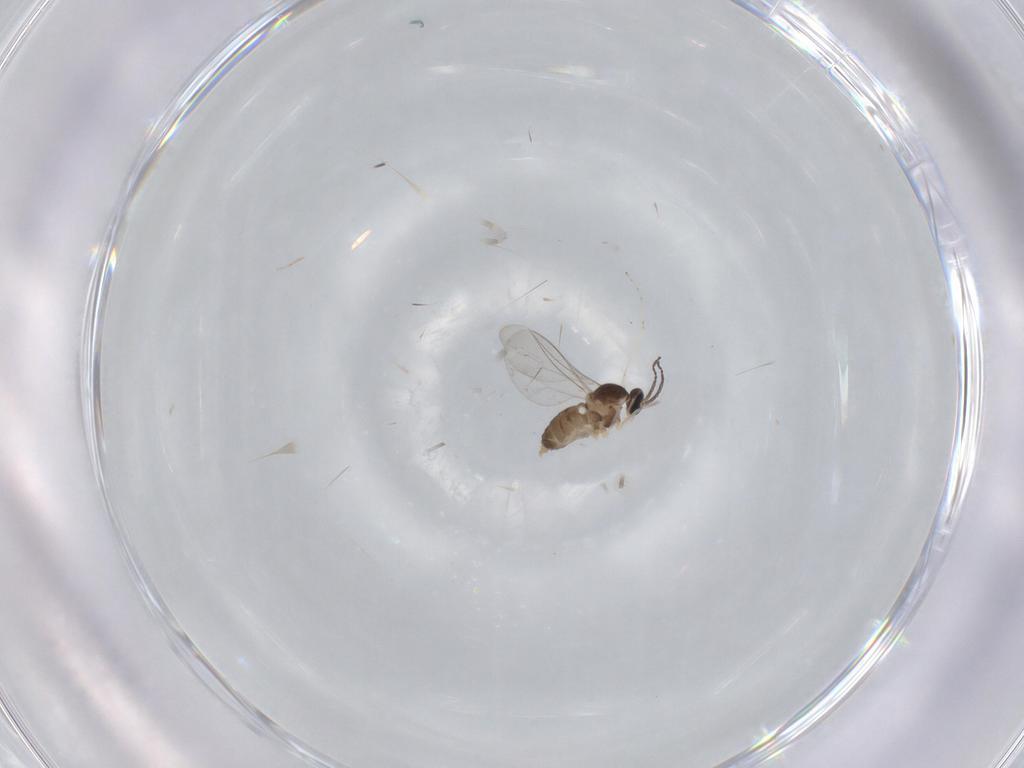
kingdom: Animalia
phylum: Arthropoda
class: Insecta
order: Diptera
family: Cecidomyiidae
